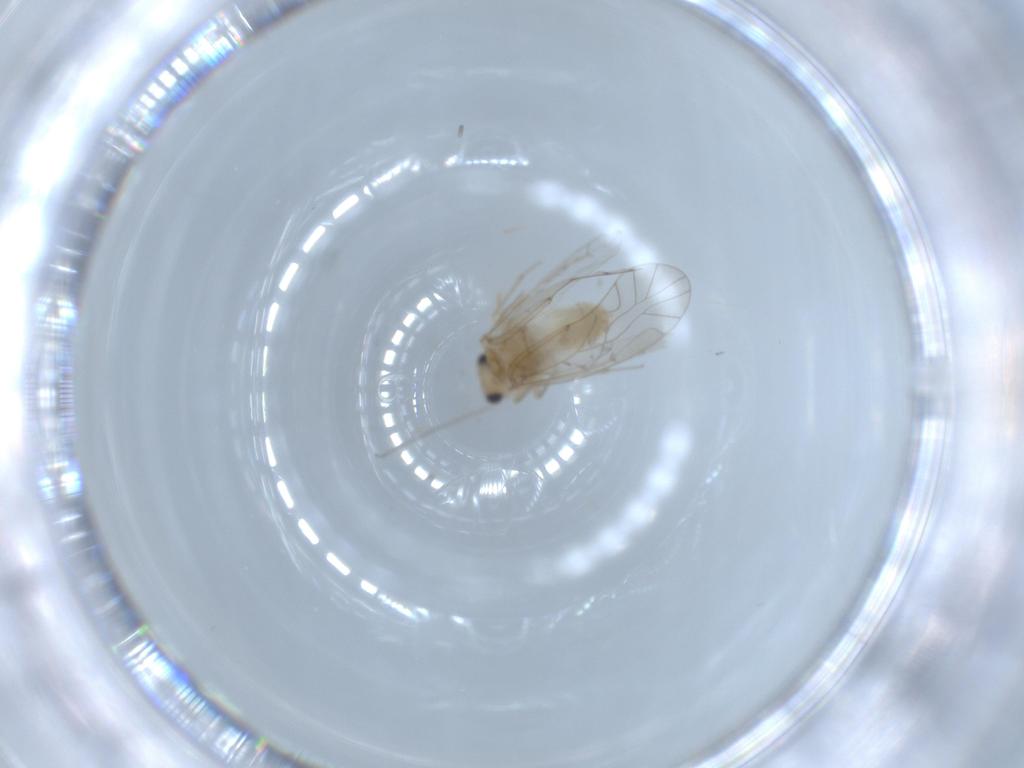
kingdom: Animalia
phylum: Arthropoda
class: Insecta
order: Psocodea
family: Lachesillidae
